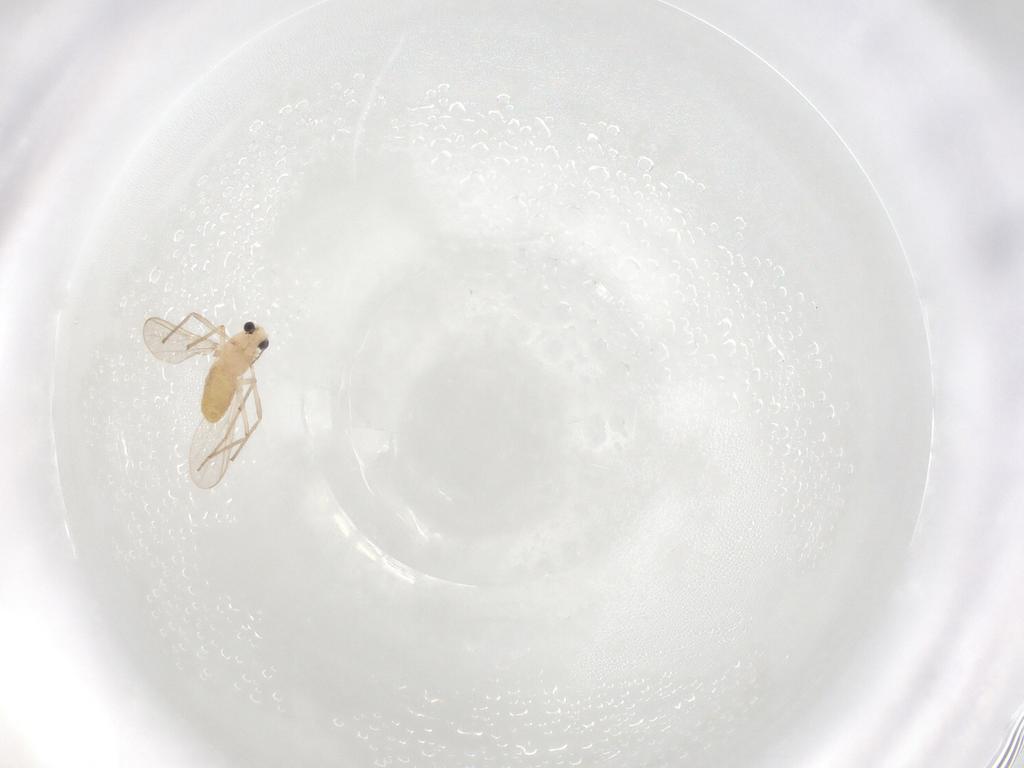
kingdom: Animalia
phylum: Arthropoda
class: Insecta
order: Diptera
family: Chironomidae
